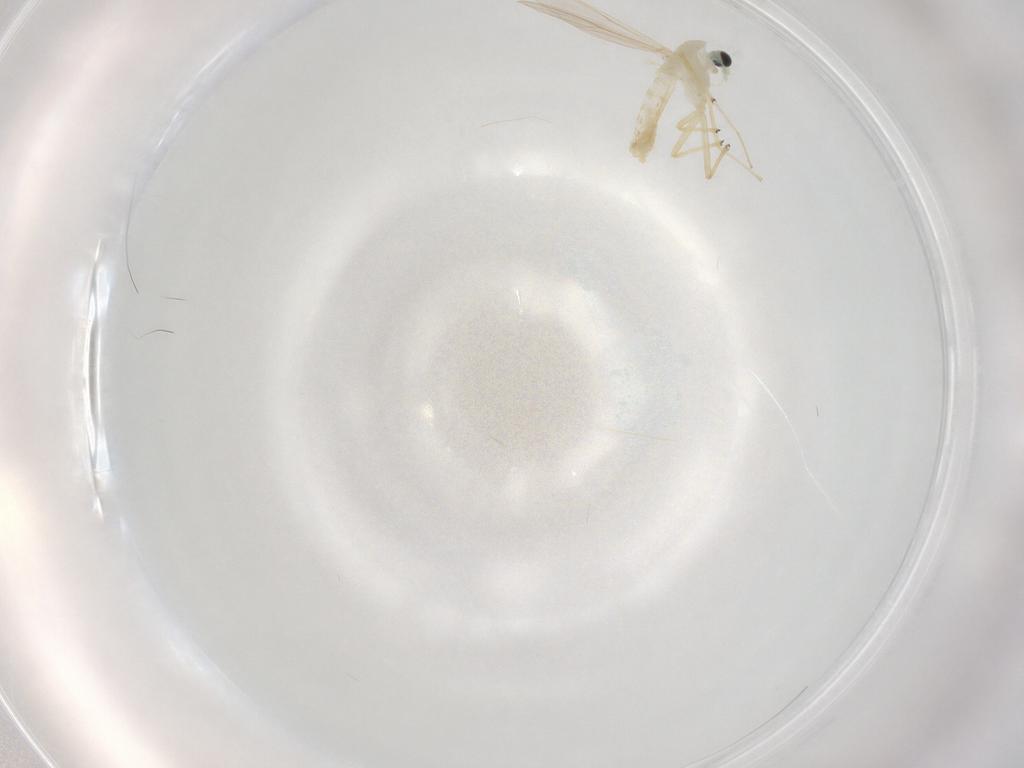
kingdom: Animalia
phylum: Arthropoda
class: Insecta
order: Diptera
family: Chironomidae
